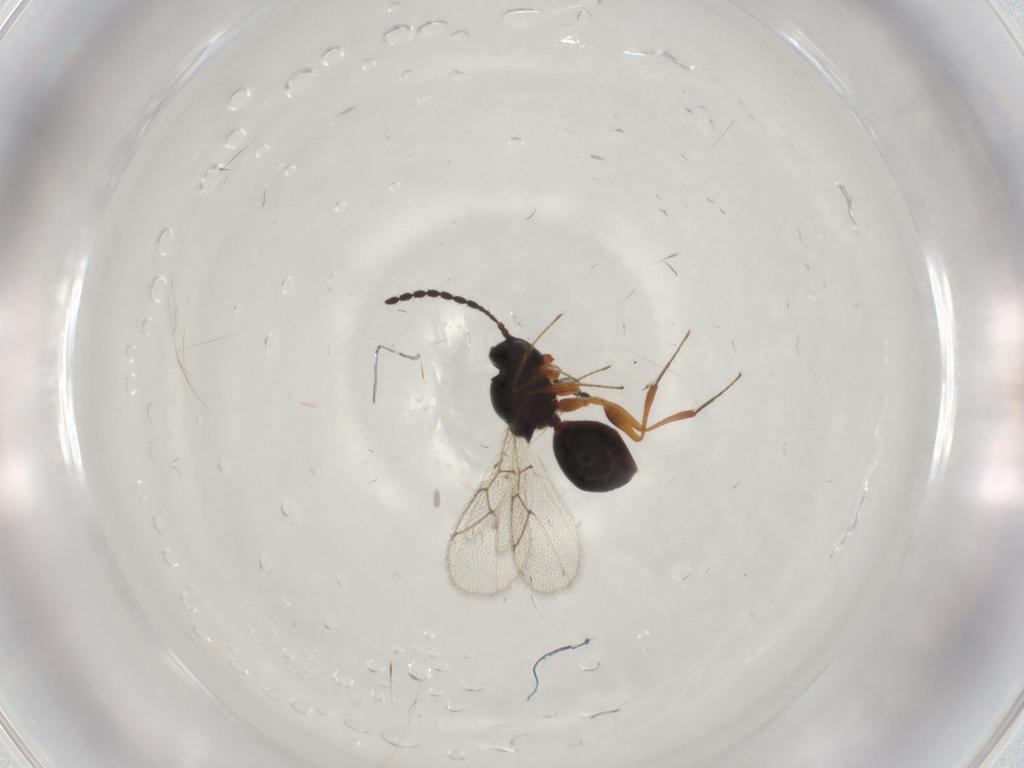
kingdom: Animalia
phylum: Arthropoda
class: Insecta
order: Hymenoptera
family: Figitidae
